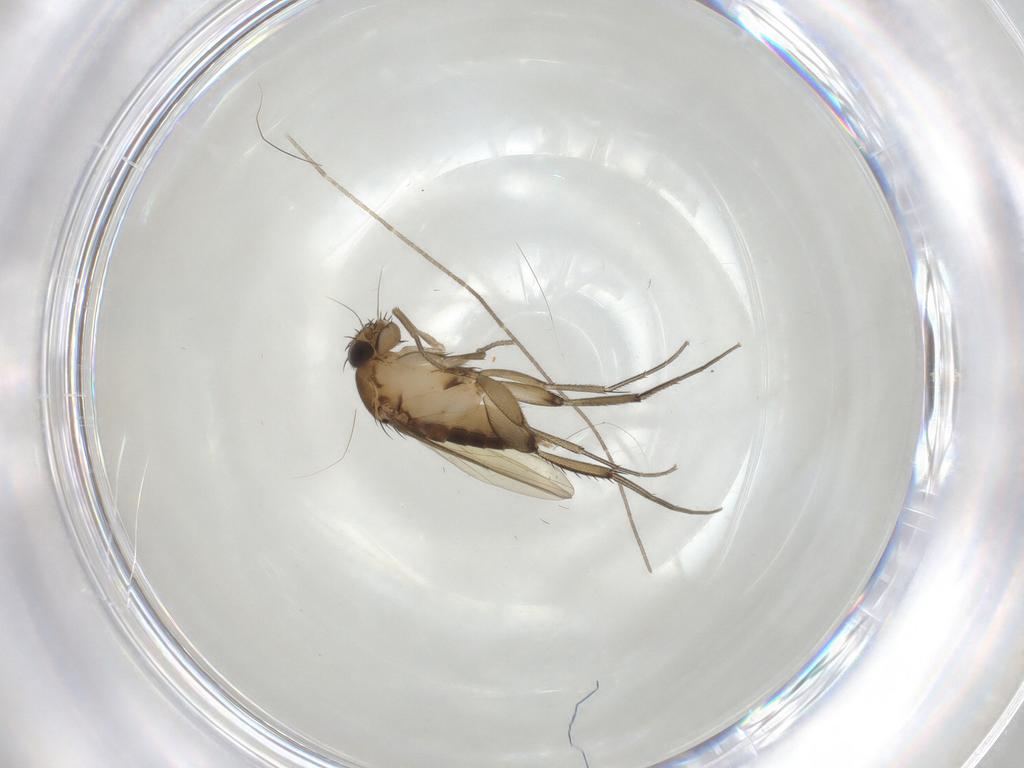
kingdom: Animalia
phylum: Arthropoda
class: Insecta
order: Diptera
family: Phoridae
